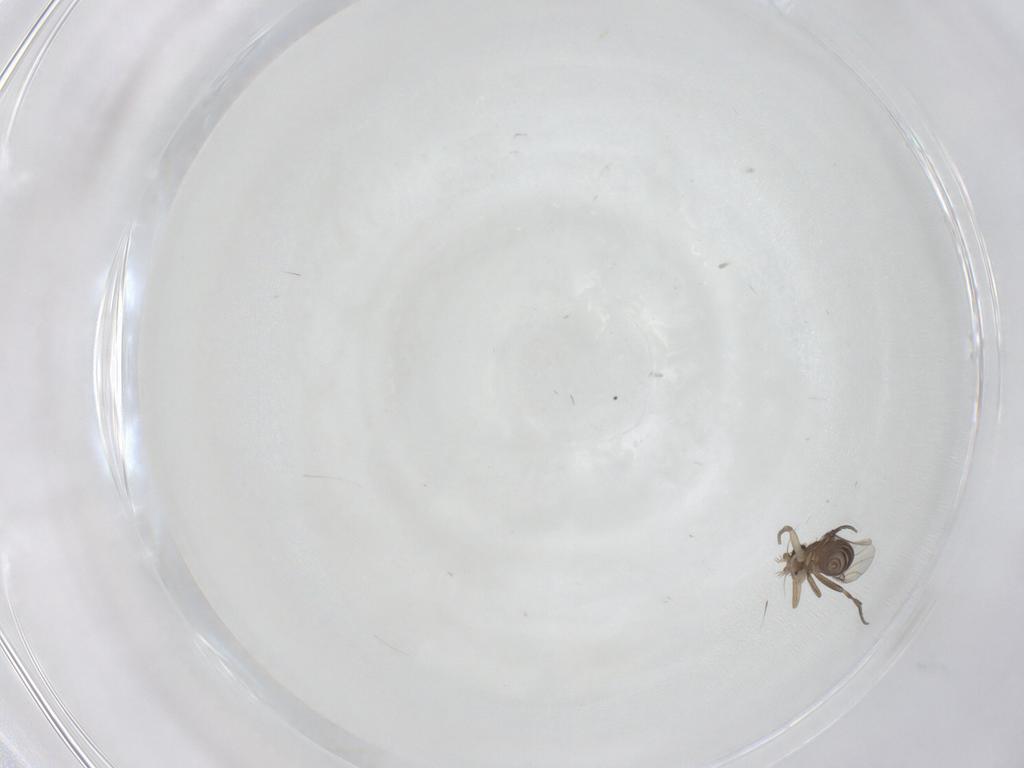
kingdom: Animalia
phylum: Arthropoda
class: Insecta
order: Diptera
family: Phoridae
